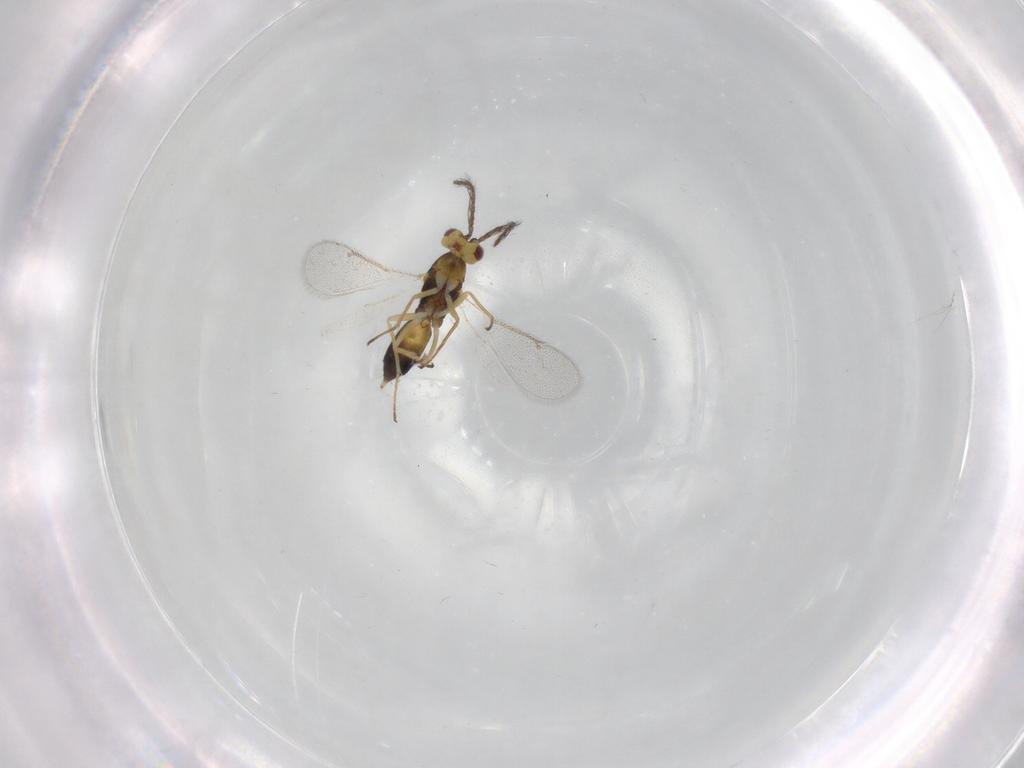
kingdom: Animalia
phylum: Arthropoda
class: Insecta
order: Hymenoptera
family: Eulophidae
